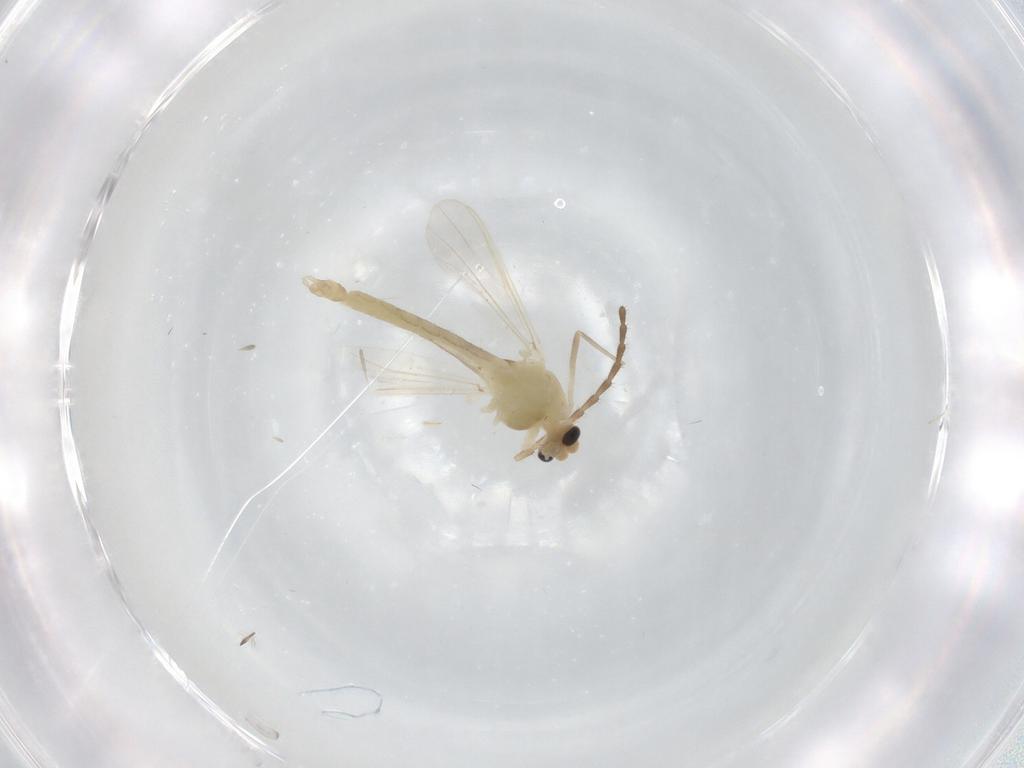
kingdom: Animalia
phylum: Arthropoda
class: Insecta
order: Diptera
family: Chironomidae
